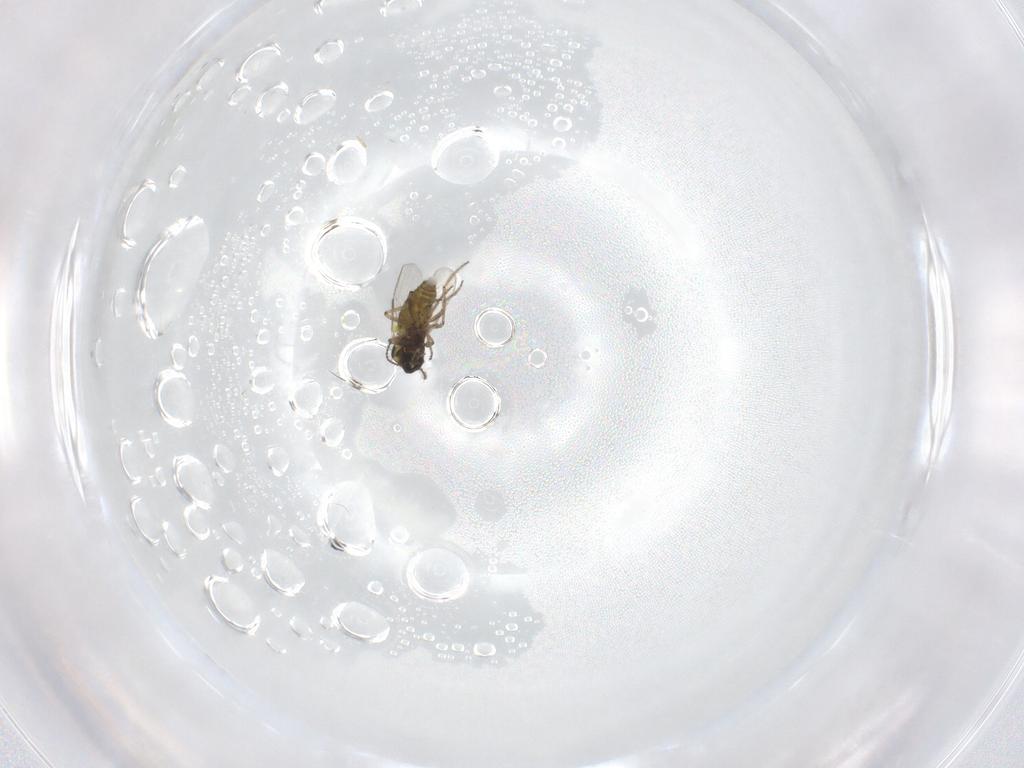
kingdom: Animalia
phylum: Arthropoda
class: Insecta
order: Diptera
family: Ceratopogonidae
